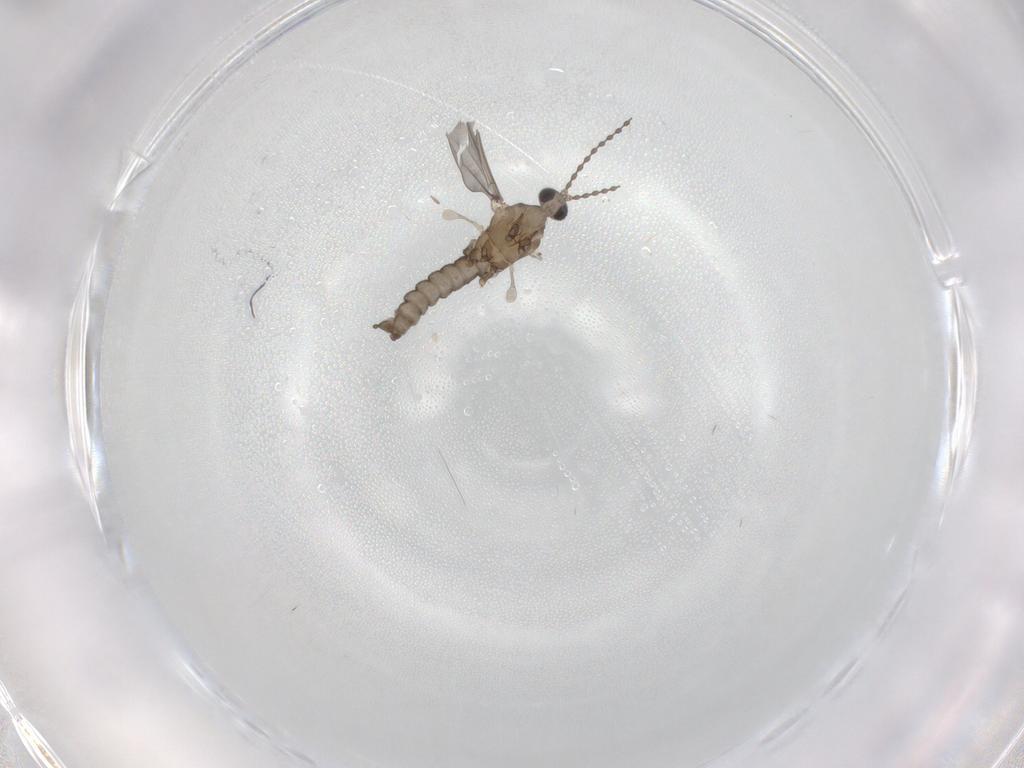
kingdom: Animalia
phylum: Arthropoda
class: Insecta
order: Diptera
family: Cecidomyiidae
